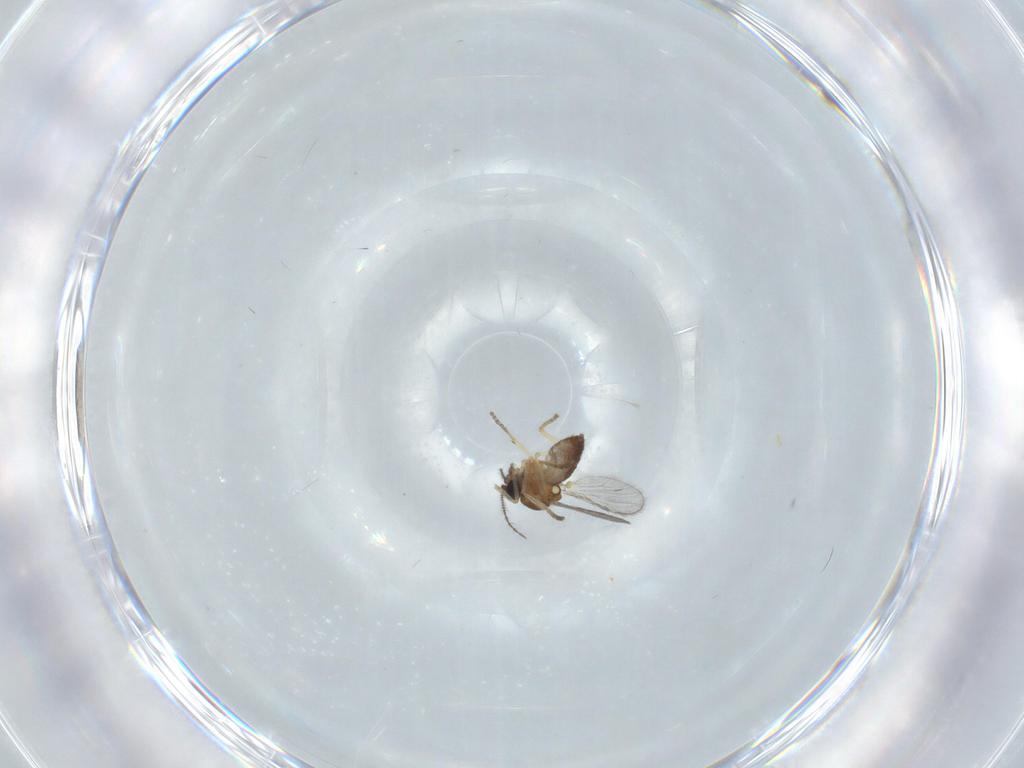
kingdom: Animalia
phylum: Arthropoda
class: Insecta
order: Diptera
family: Ceratopogonidae
